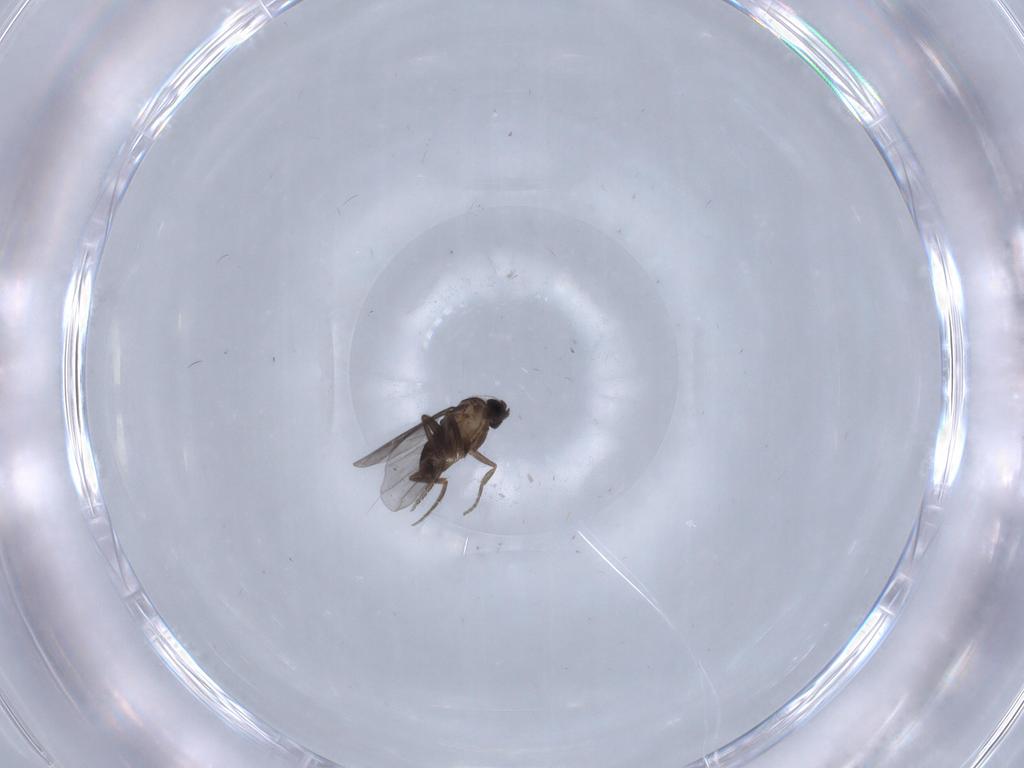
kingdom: Animalia
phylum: Arthropoda
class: Insecta
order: Diptera
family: Phoridae
